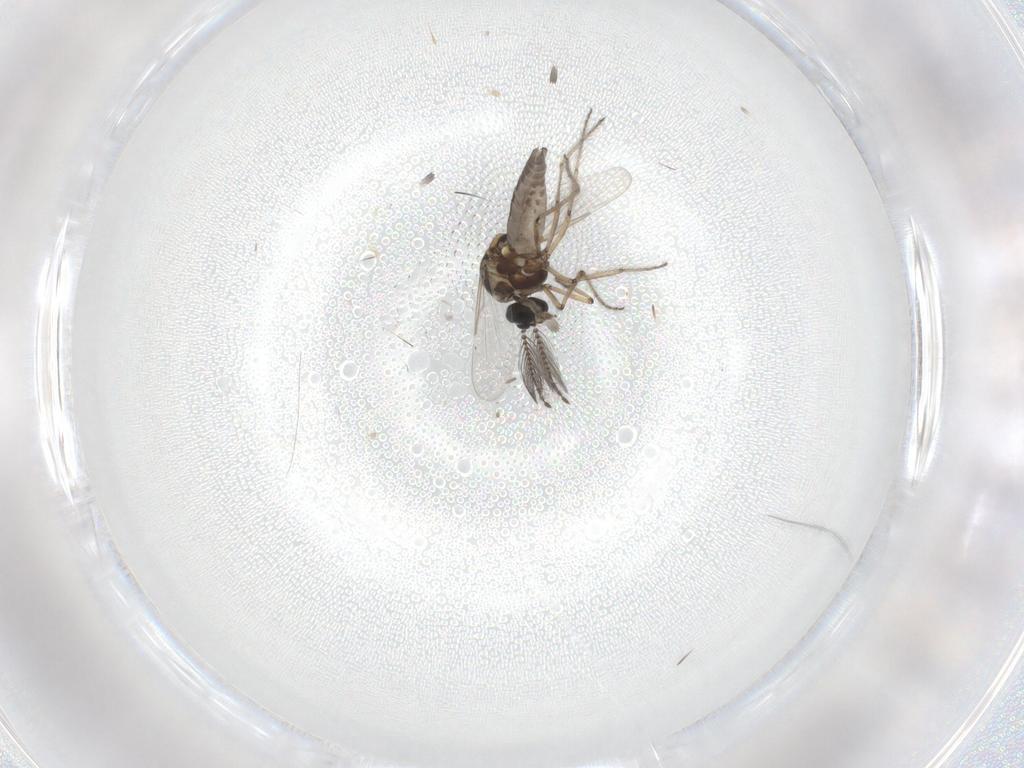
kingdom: Animalia
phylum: Arthropoda
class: Insecta
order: Diptera
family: Ceratopogonidae
